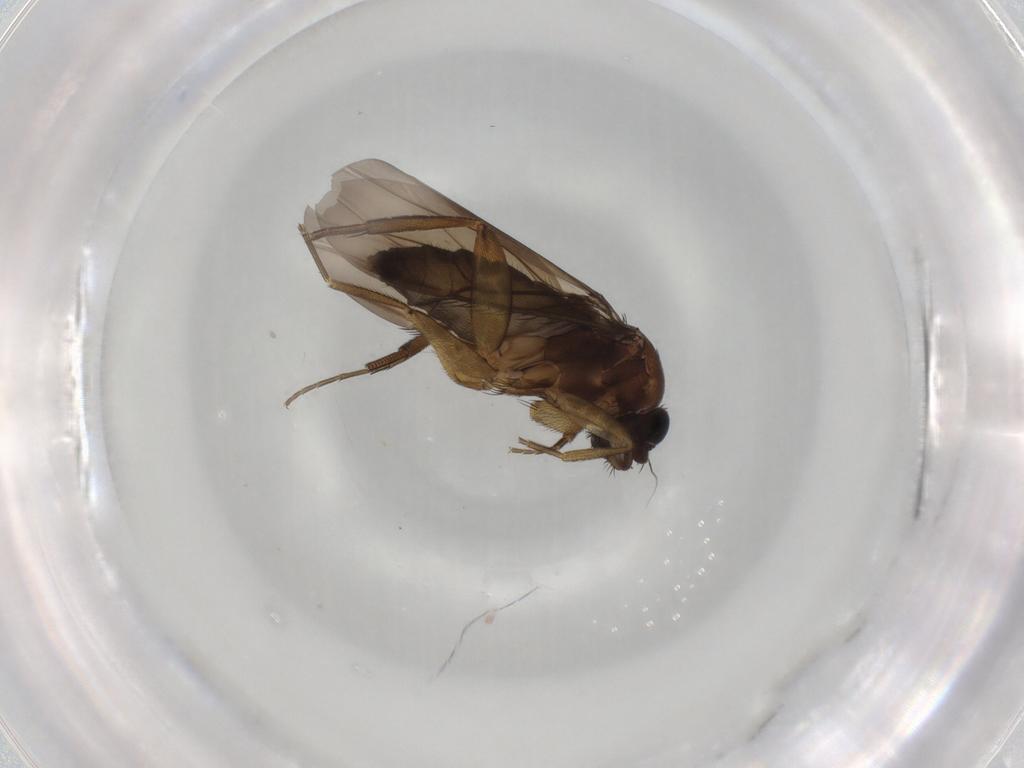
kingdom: Animalia
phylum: Arthropoda
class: Insecta
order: Diptera
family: Phoridae
